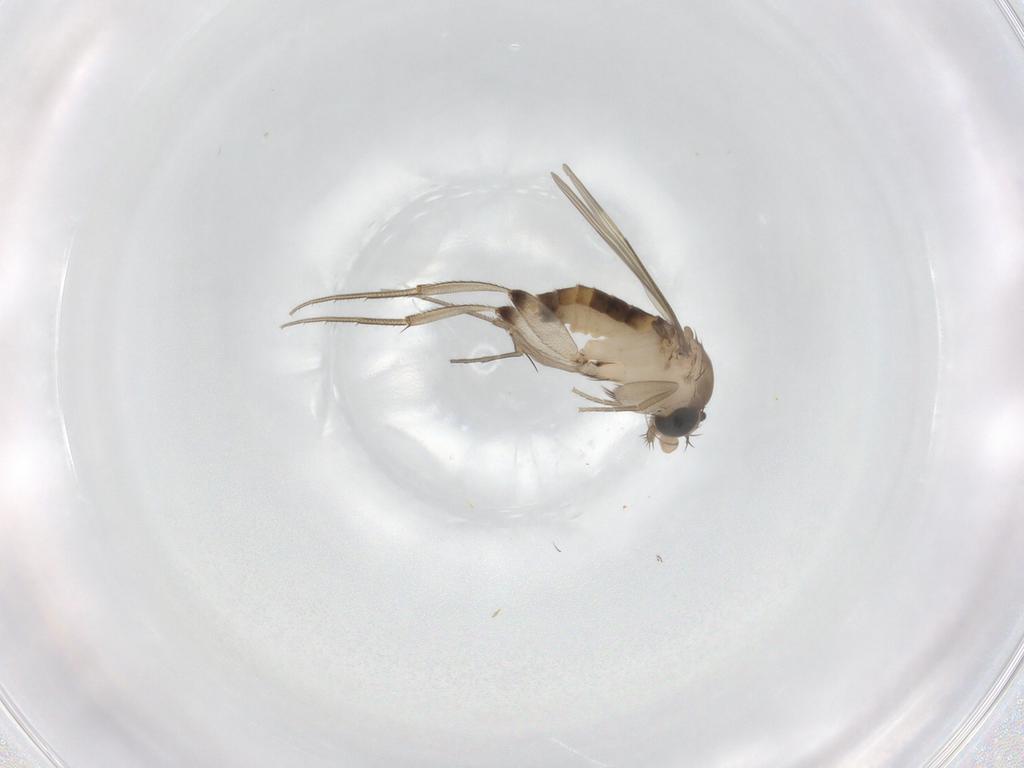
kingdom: Animalia
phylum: Arthropoda
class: Insecta
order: Diptera
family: Phoridae
